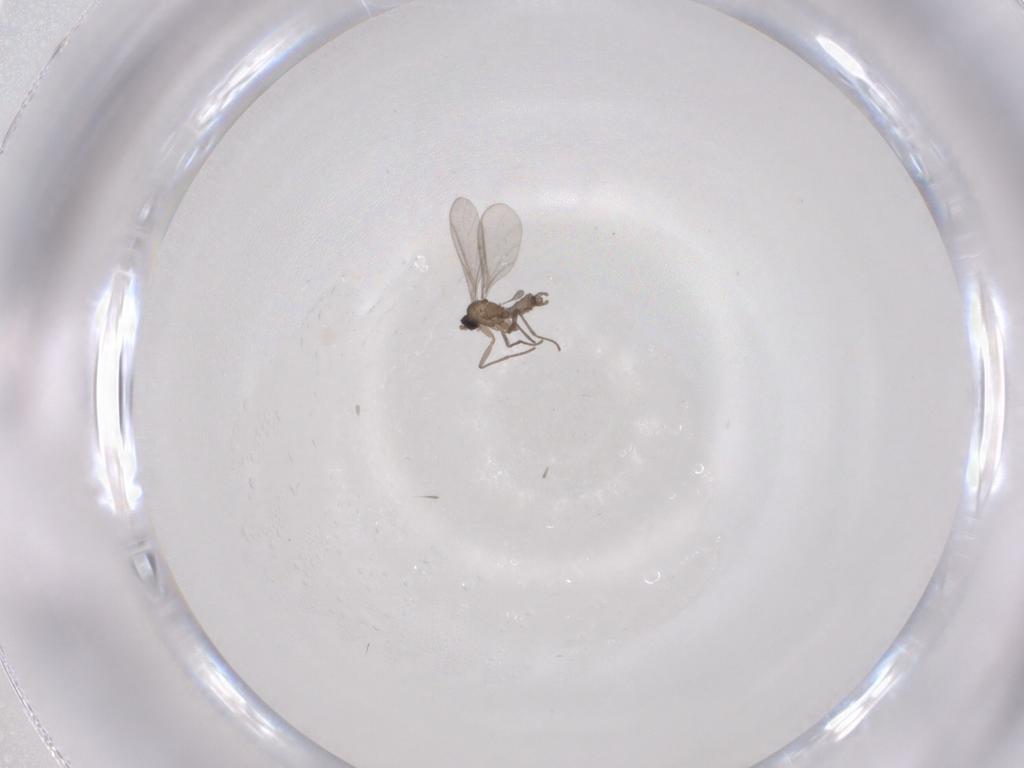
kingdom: Animalia
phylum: Arthropoda
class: Insecta
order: Diptera
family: Sciaridae
